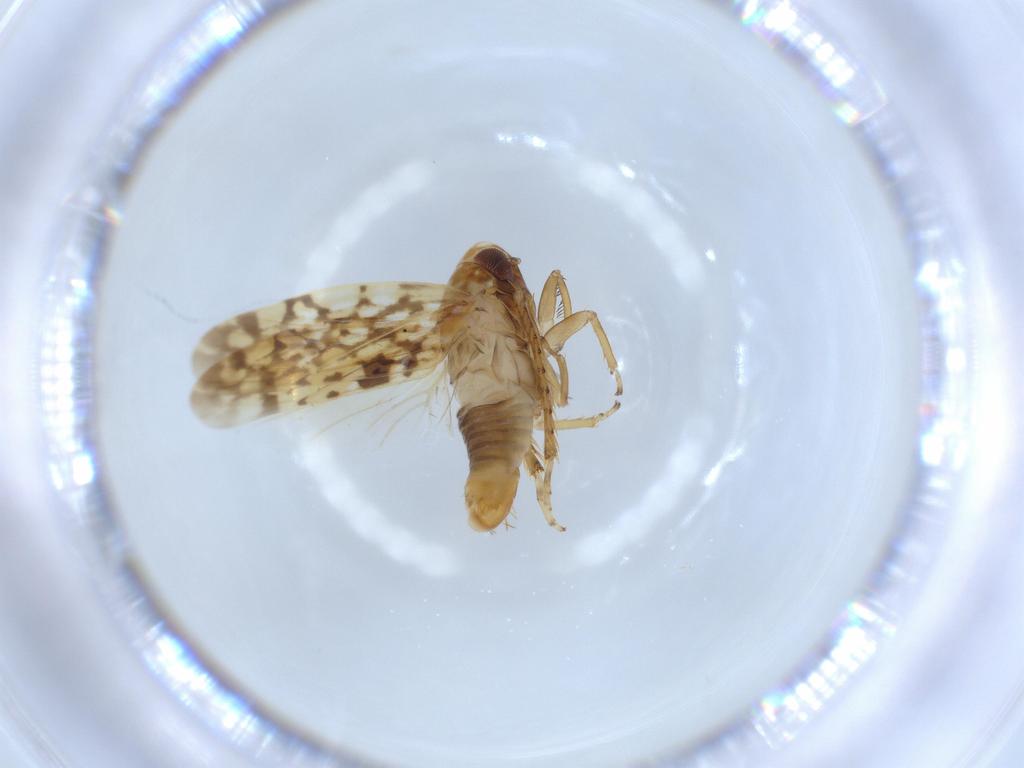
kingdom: Animalia
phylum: Arthropoda
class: Insecta
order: Hemiptera
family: Cicadellidae
